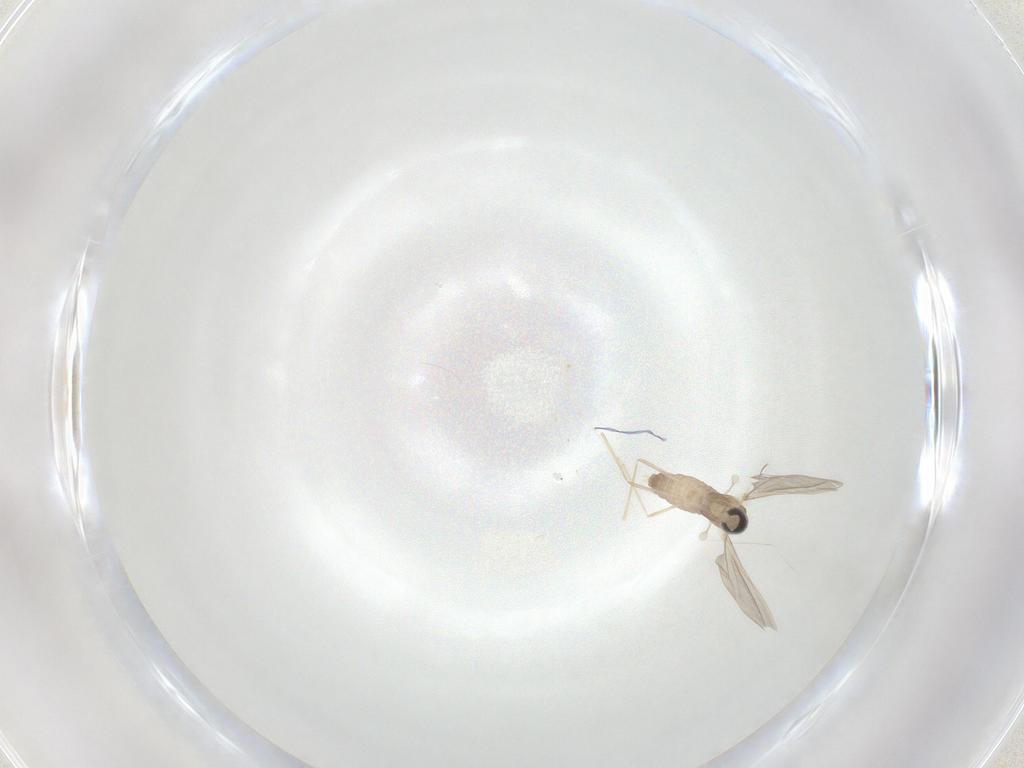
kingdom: Animalia
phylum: Arthropoda
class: Insecta
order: Diptera
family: Cecidomyiidae
